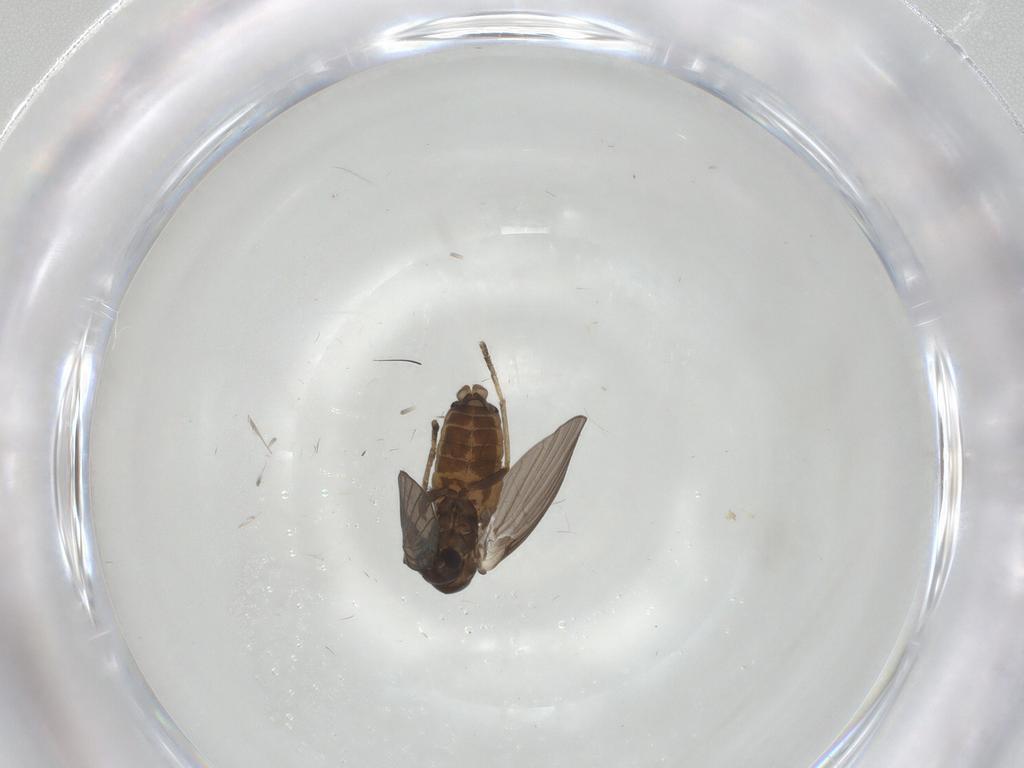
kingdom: Animalia
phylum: Arthropoda
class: Insecta
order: Diptera
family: Psychodidae
